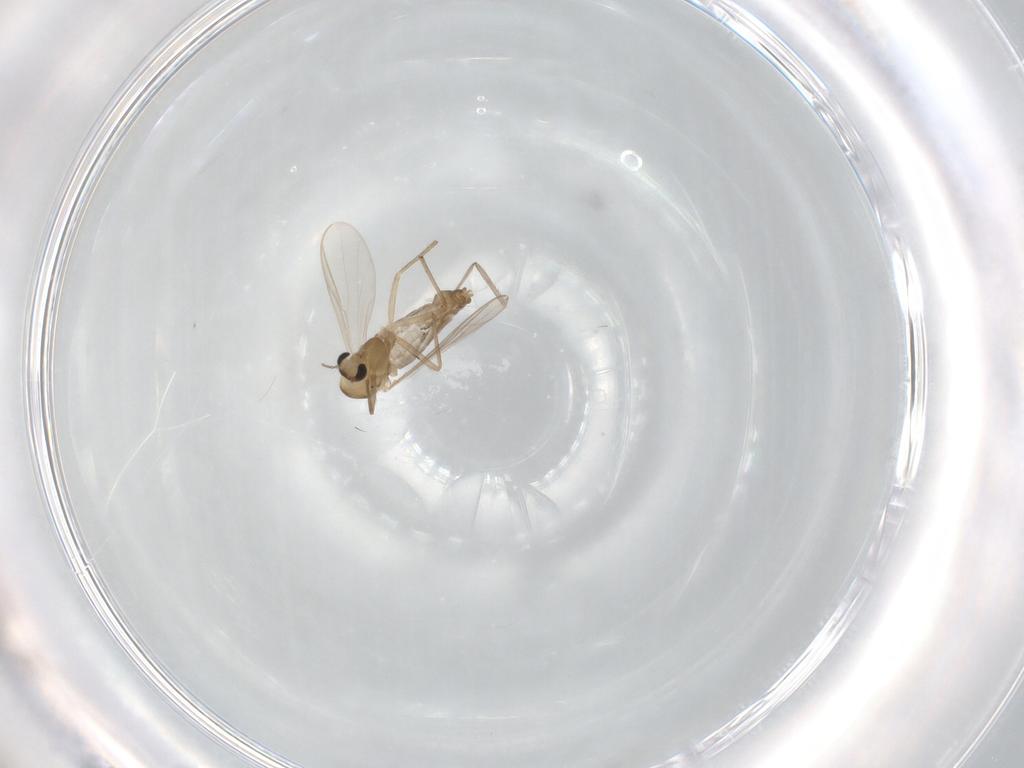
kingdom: Animalia
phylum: Arthropoda
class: Insecta
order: Diptera
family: Chironomidae
